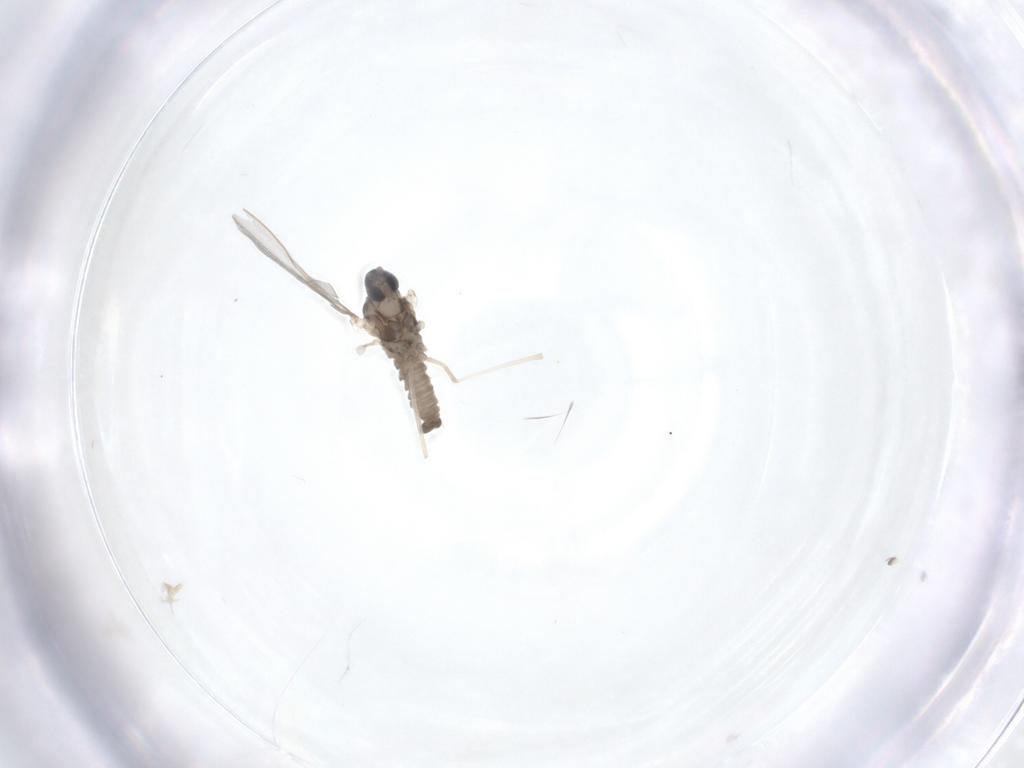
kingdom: Animalia
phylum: Arthropoda
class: Insecta
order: Diptera
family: Cecidomyiidae
